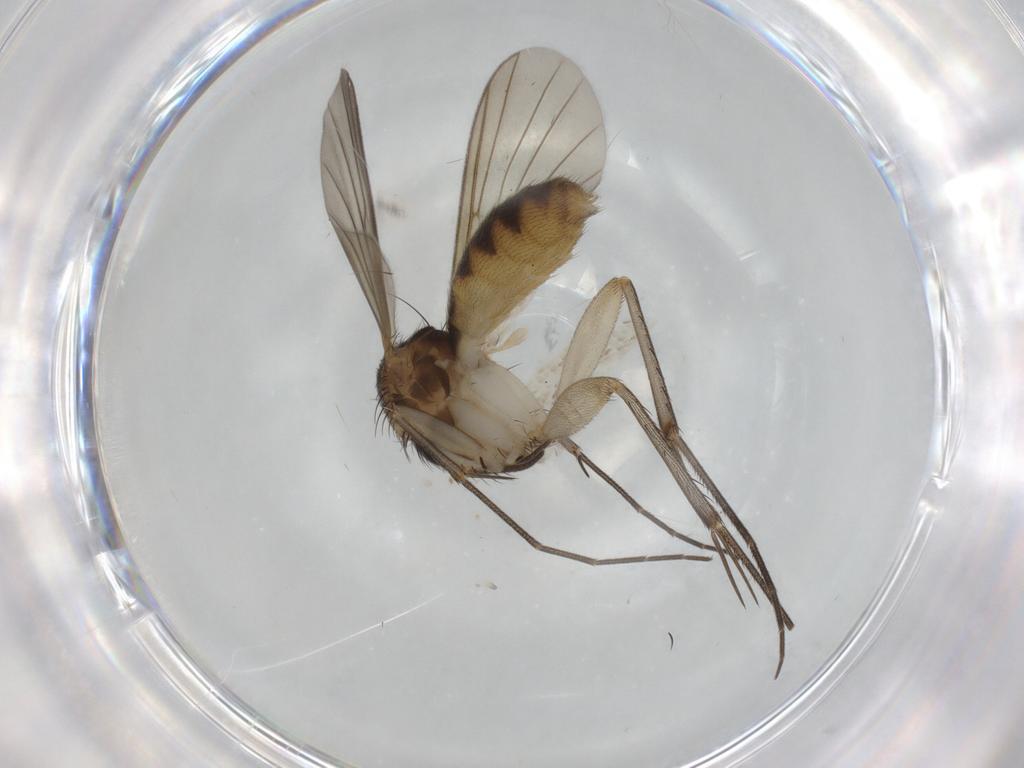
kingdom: Animalia
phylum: Arthropoda
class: Insecta
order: Diptera
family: Mycetophilidae
